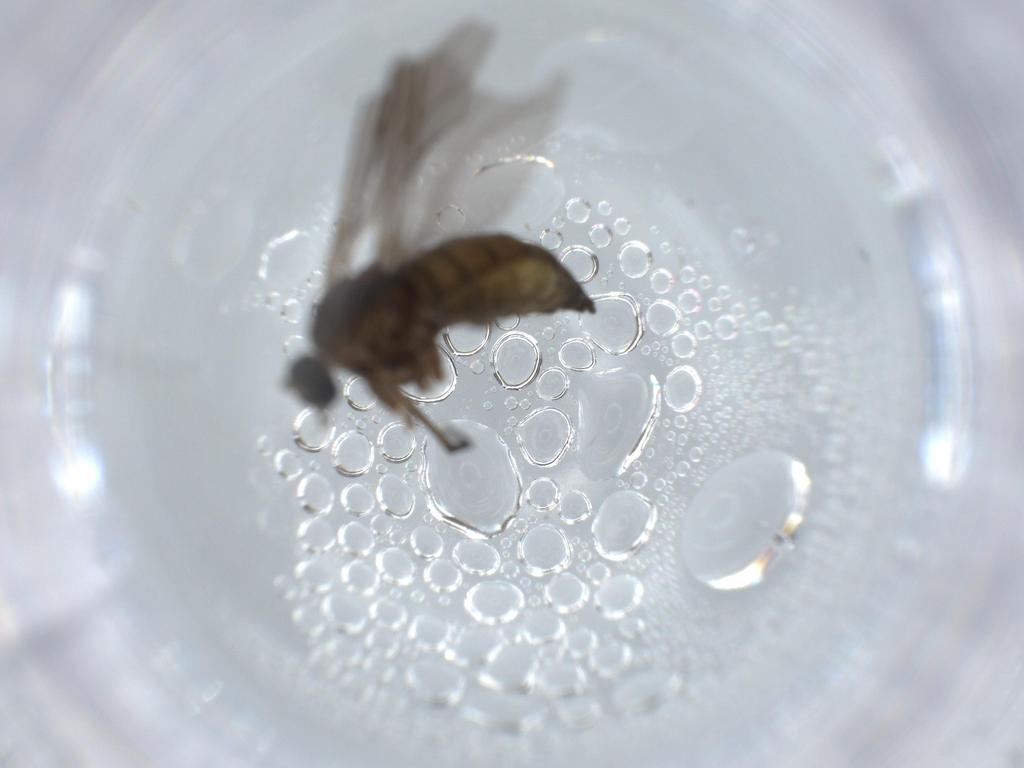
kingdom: Animalia
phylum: Arthropoda
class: Insecta
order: Diptera
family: Sciaridae
